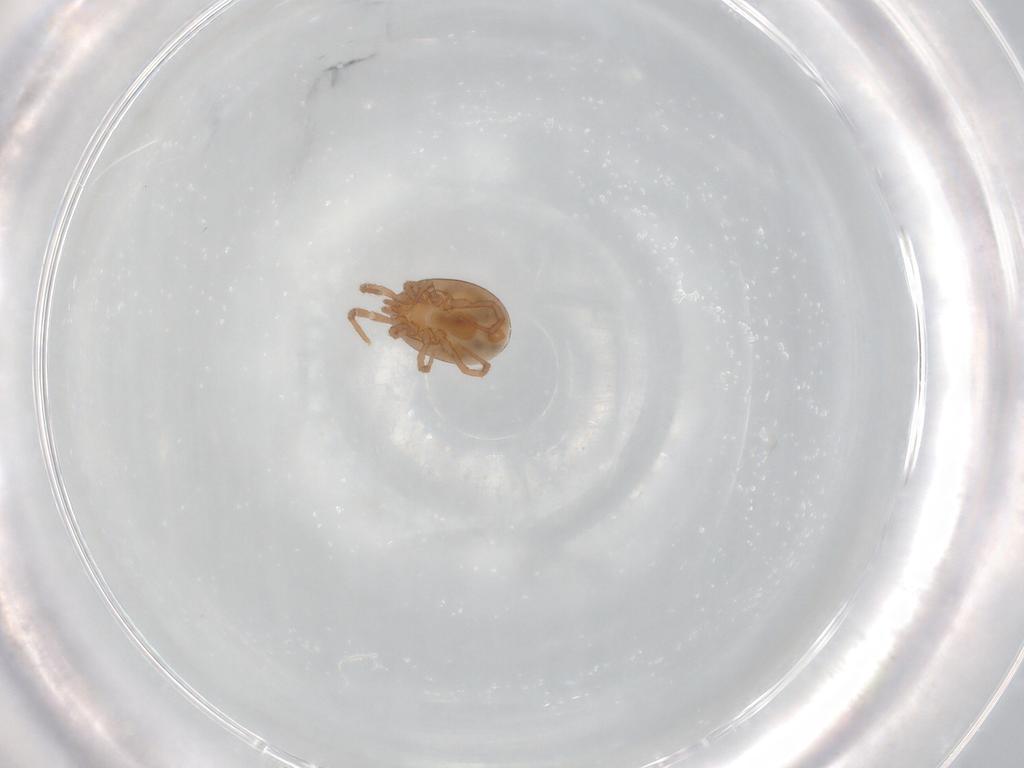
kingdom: Animalia
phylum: Arthropoda
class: Arachnida
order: Mesostigmata
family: Parasitidae
